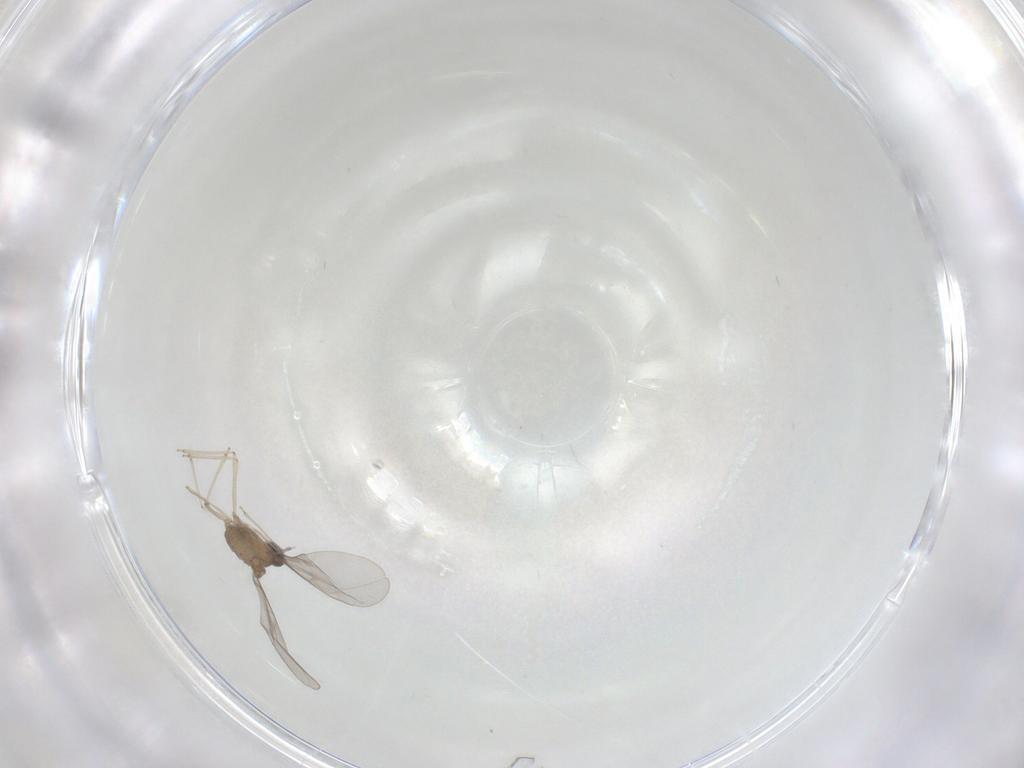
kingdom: Animalia
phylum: Arthropoda
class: Insecta
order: Diptera
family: Cecidomyiidae
